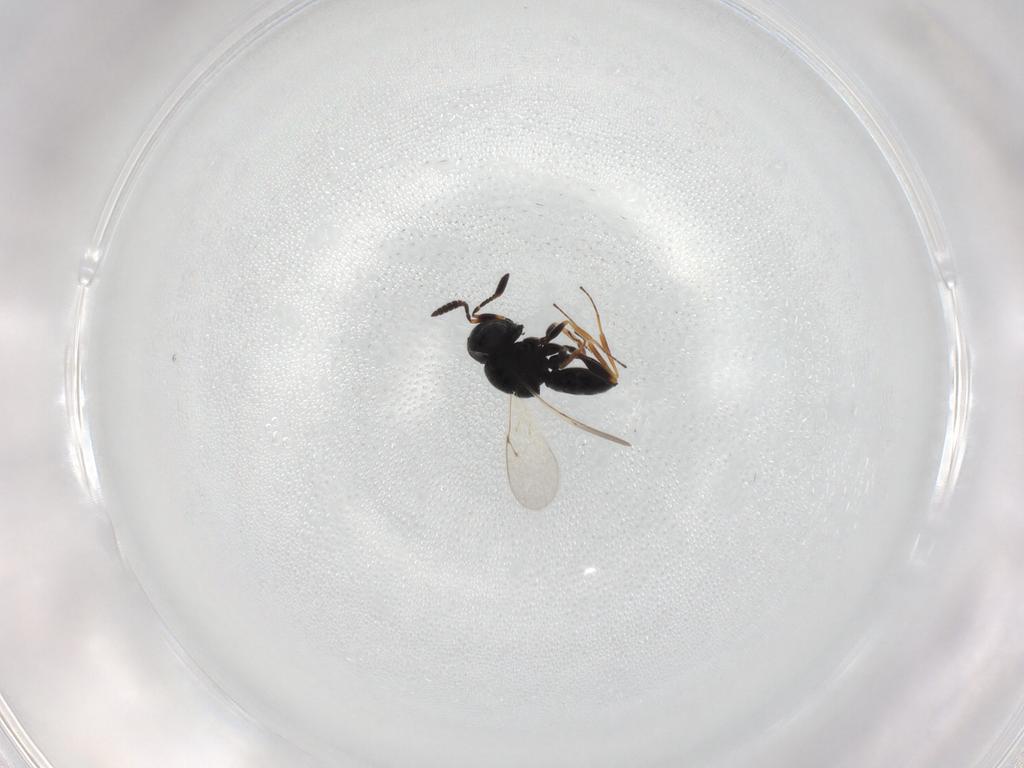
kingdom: Animalia
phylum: Arthropoda
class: Insecta
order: Hymenoptera
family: Scelionidae
